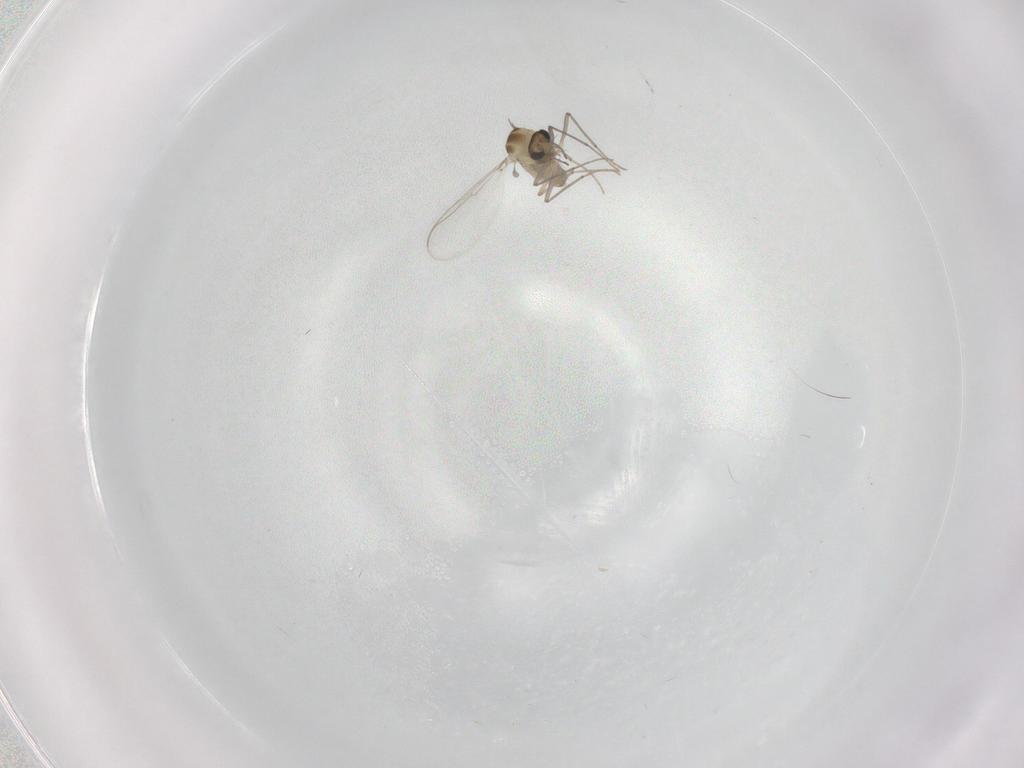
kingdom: Animalia
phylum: Arthropoda
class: Insecta
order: Diptera
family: Chironomidae
